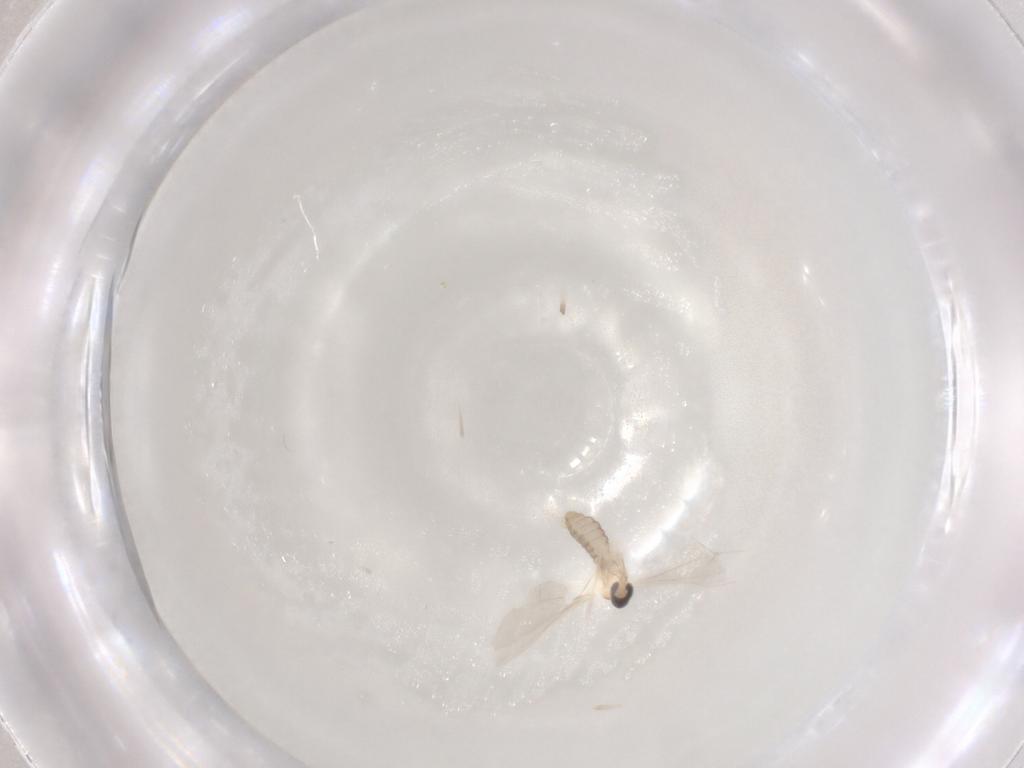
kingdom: Animalia
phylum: Arthropoda
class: Insecta
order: Diptera
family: Cecidomyiidae
